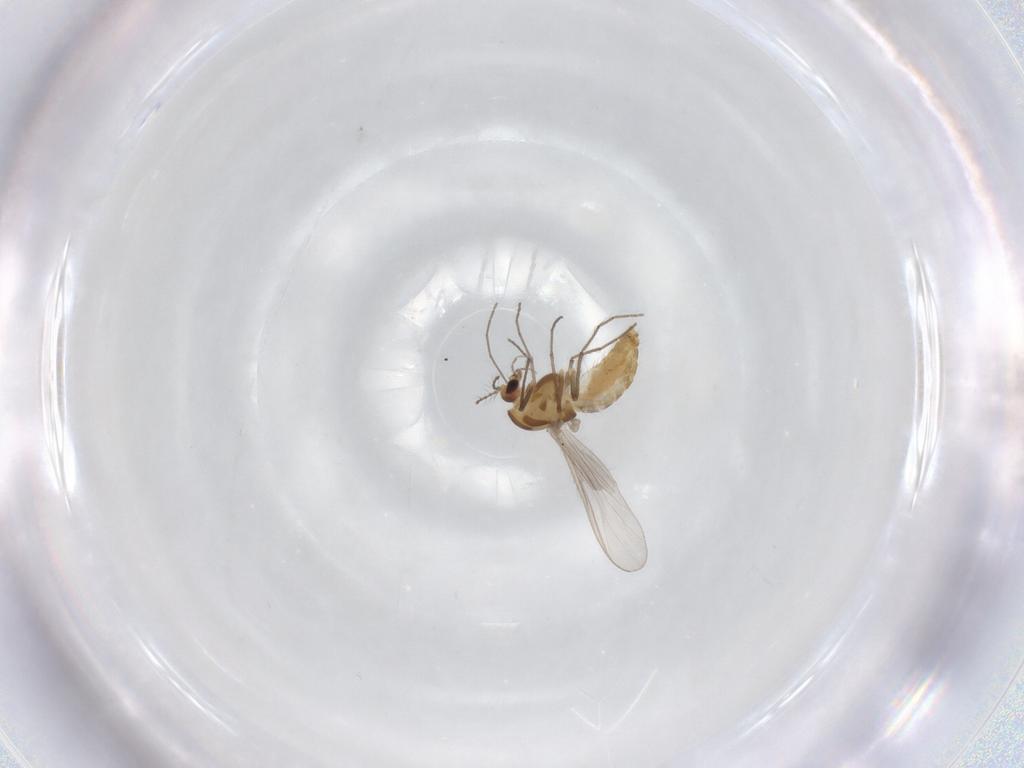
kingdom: Animalia
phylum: Arthropoda
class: Insecta
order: Diptera
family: Chironomidae
